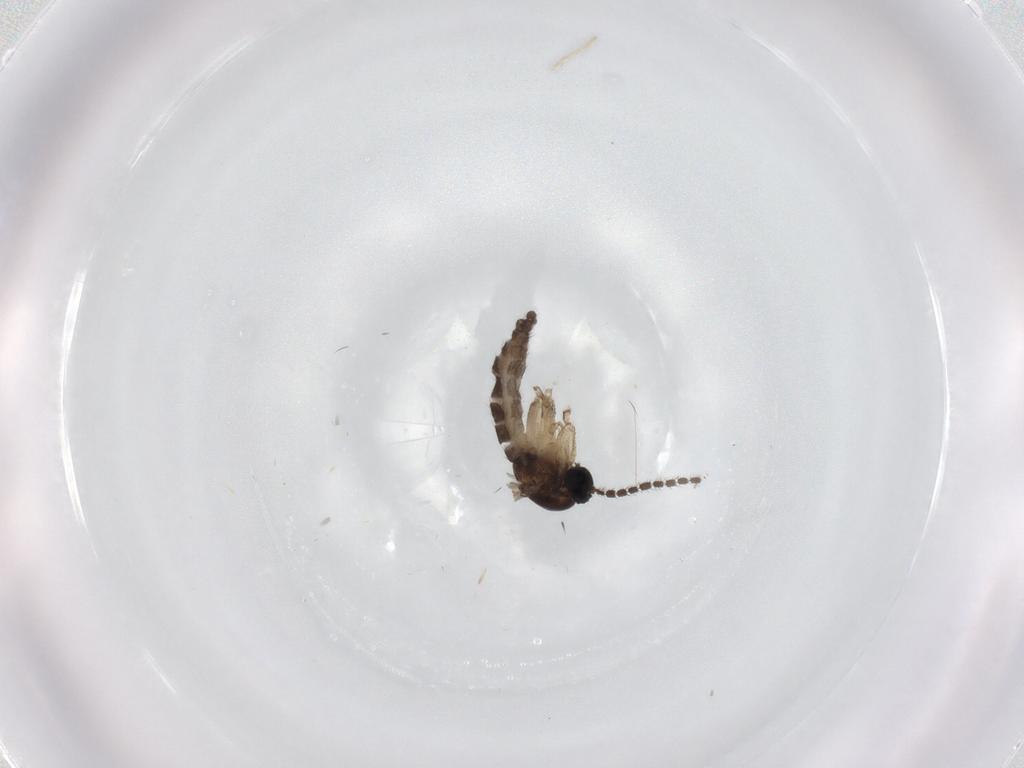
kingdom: Animalia
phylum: Arthropoda
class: Insecta
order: Diptera
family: Sciaridae
